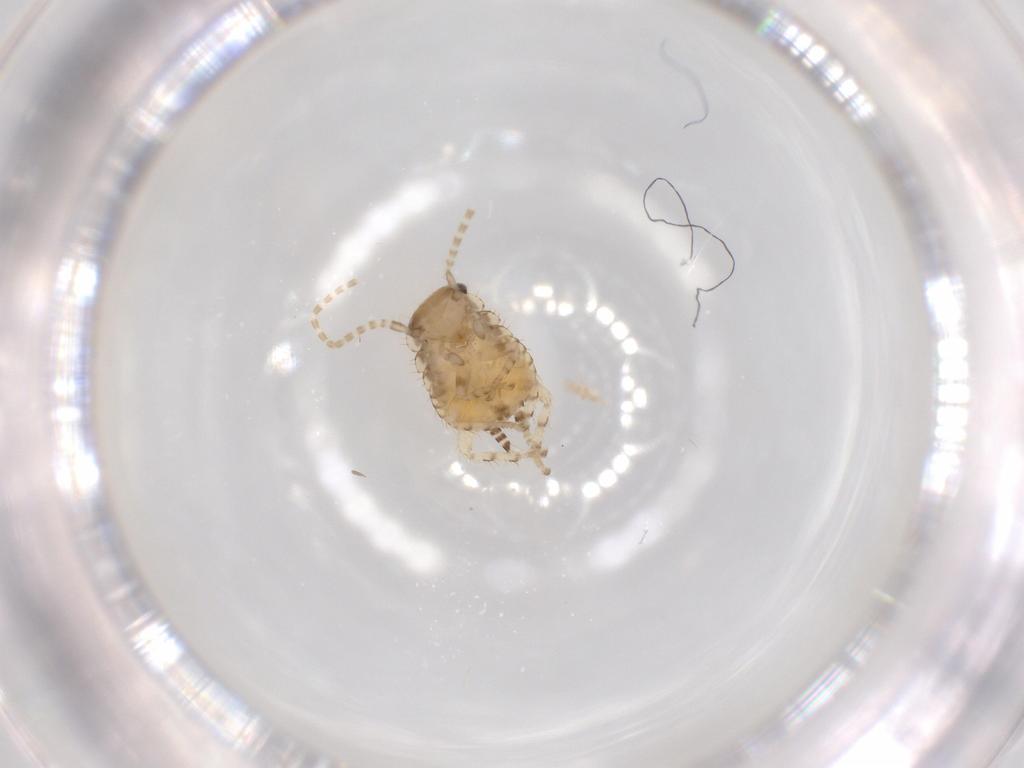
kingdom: Animalia
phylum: Arthropoda
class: Insecta
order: Blattodea
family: Ectobiidae
